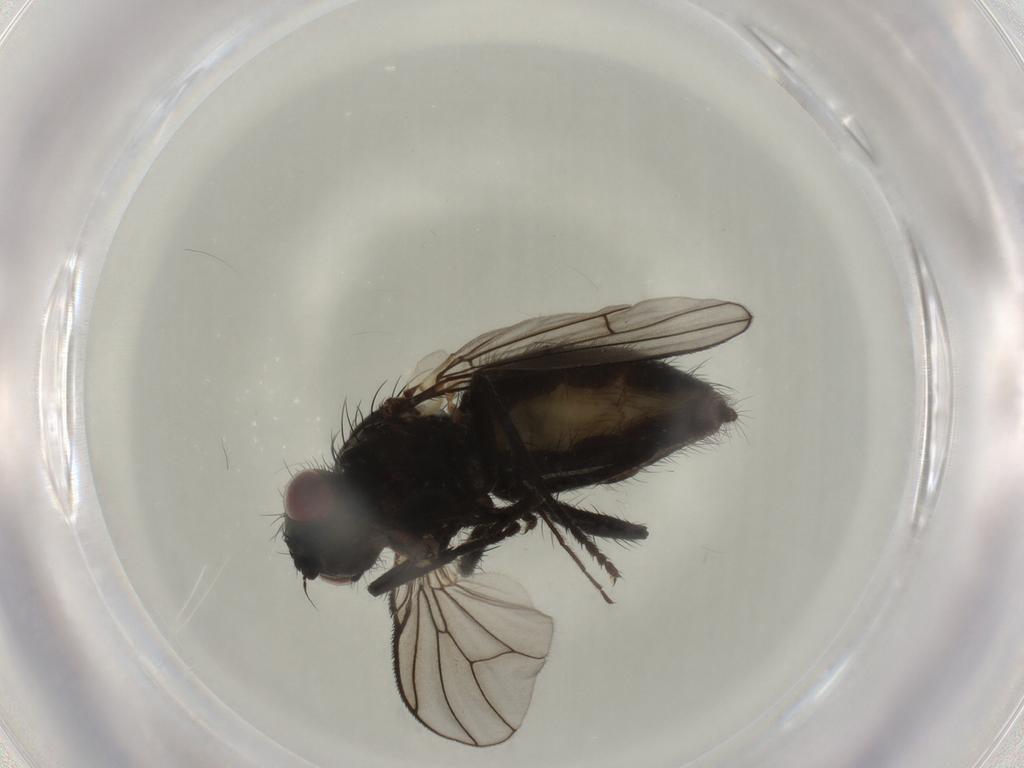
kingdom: Animalia
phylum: Arthropoda
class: Insecta
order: Diptera
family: Muscidae
